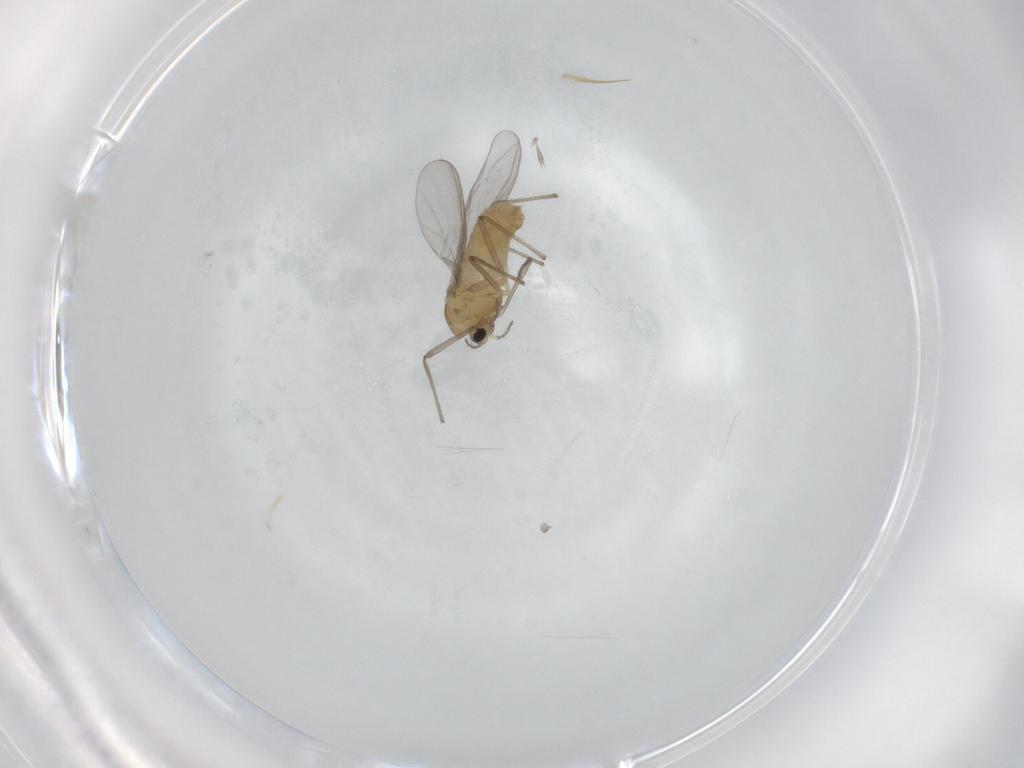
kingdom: Animalia
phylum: Arthropoda
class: Insecta
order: Diptera
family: Chironomidae
